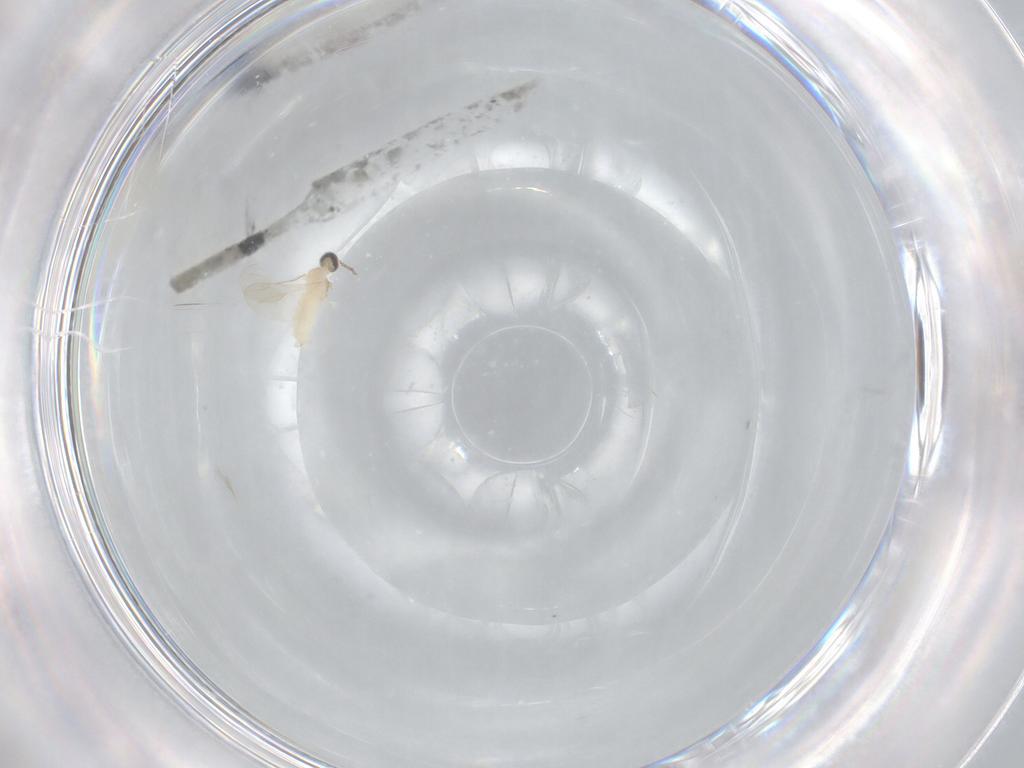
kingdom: Animalia
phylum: Arthropoda
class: Insecta
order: Diptera
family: Cecidomyiidae
